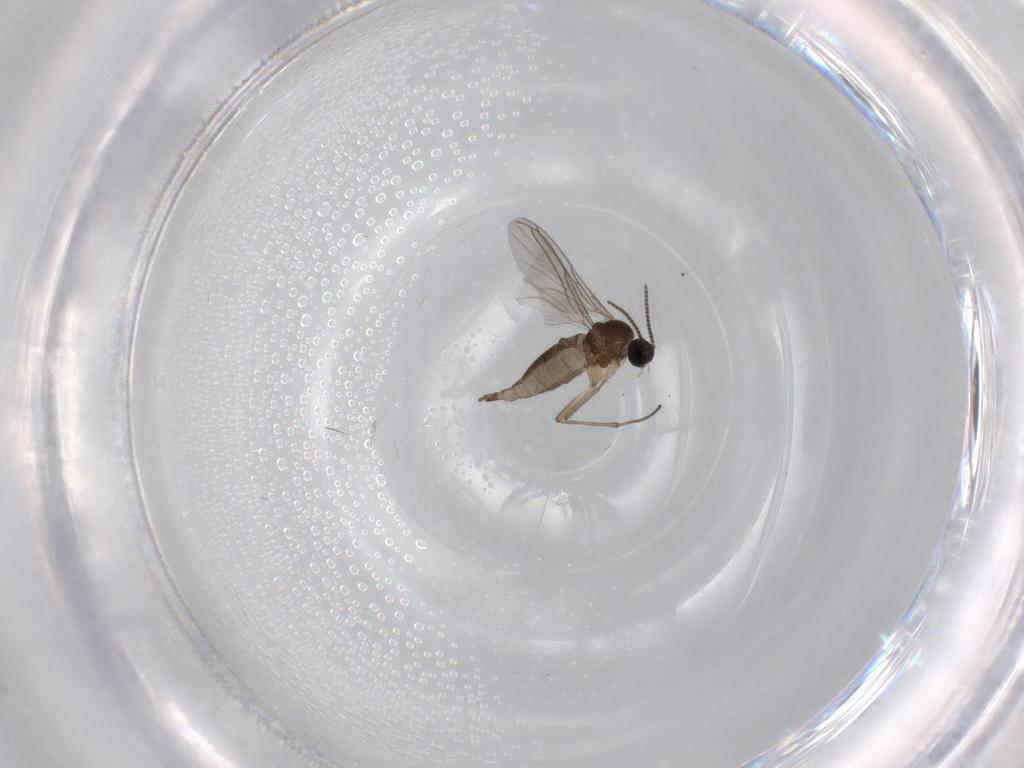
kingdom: Animalia
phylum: Arthropoda
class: Insecta
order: Diptera
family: Sciaridae
